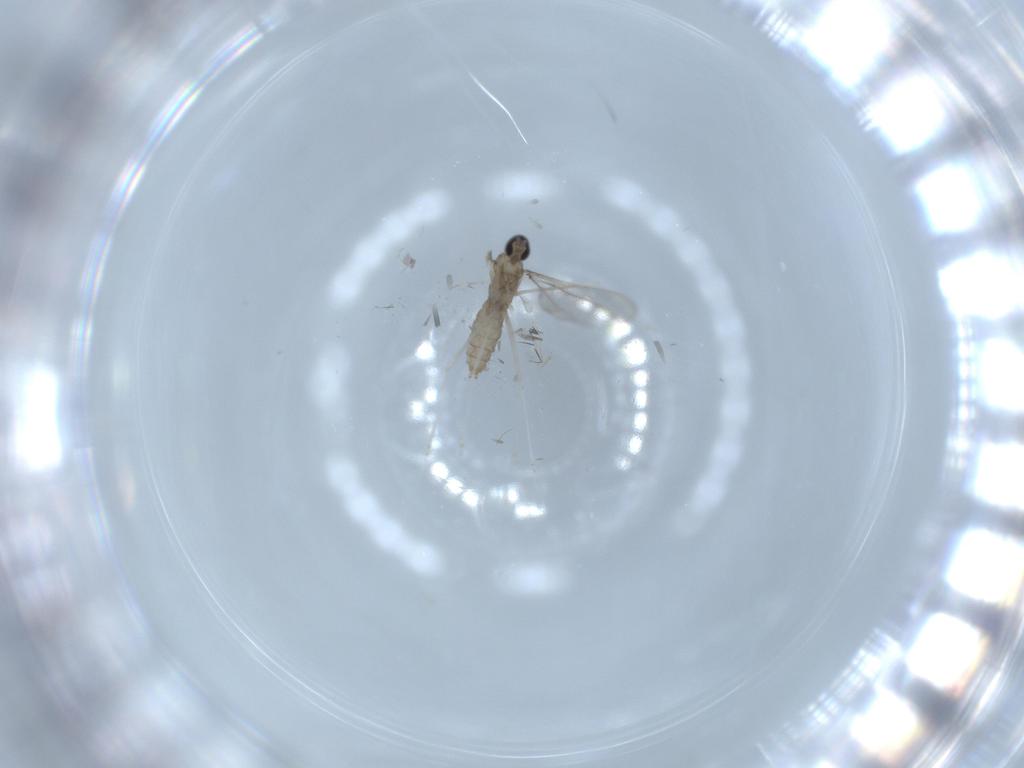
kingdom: Animalia
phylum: Arthropoda
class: Insecta
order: Diptera
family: Cecidomyiidae
